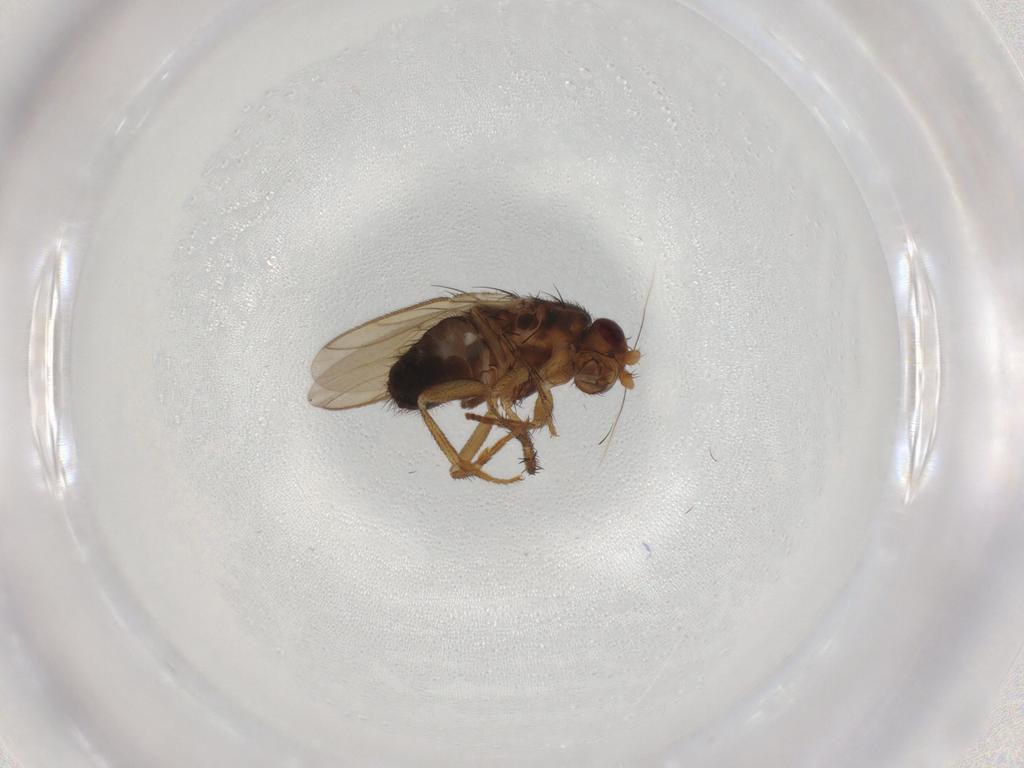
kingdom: Animalia
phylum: Arthropoda
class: Insecta
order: Diptera
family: Sphaeroceridae
